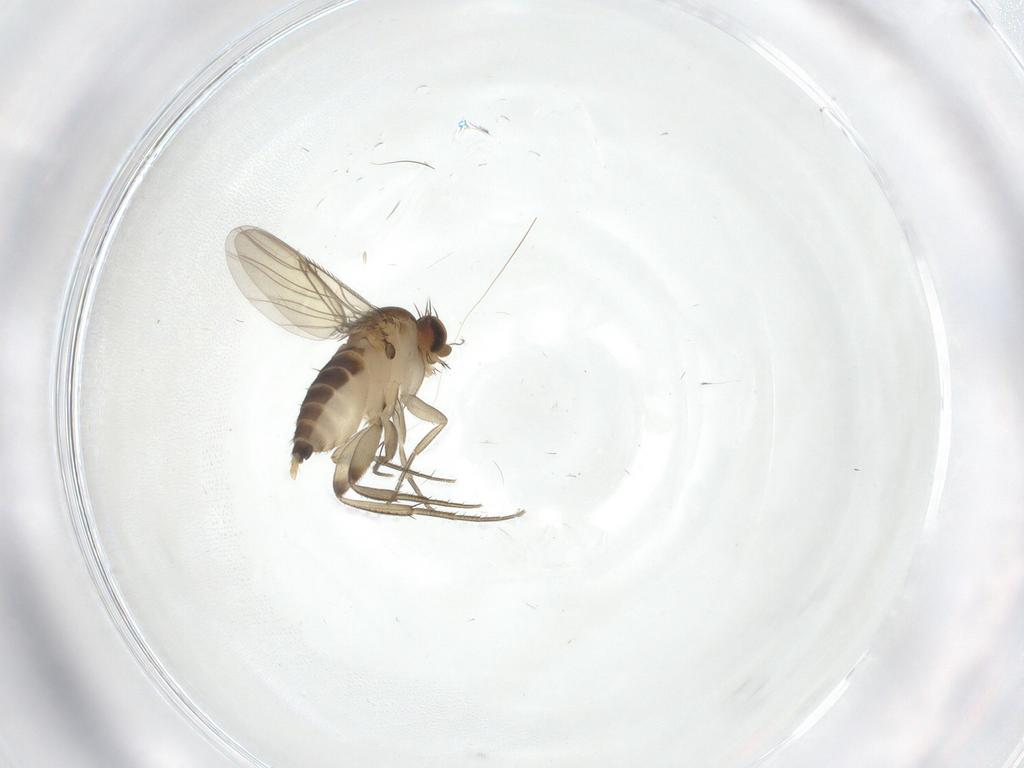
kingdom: Animalia
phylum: Arthropoda
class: Insecta
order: Diptera
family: Phoridae
